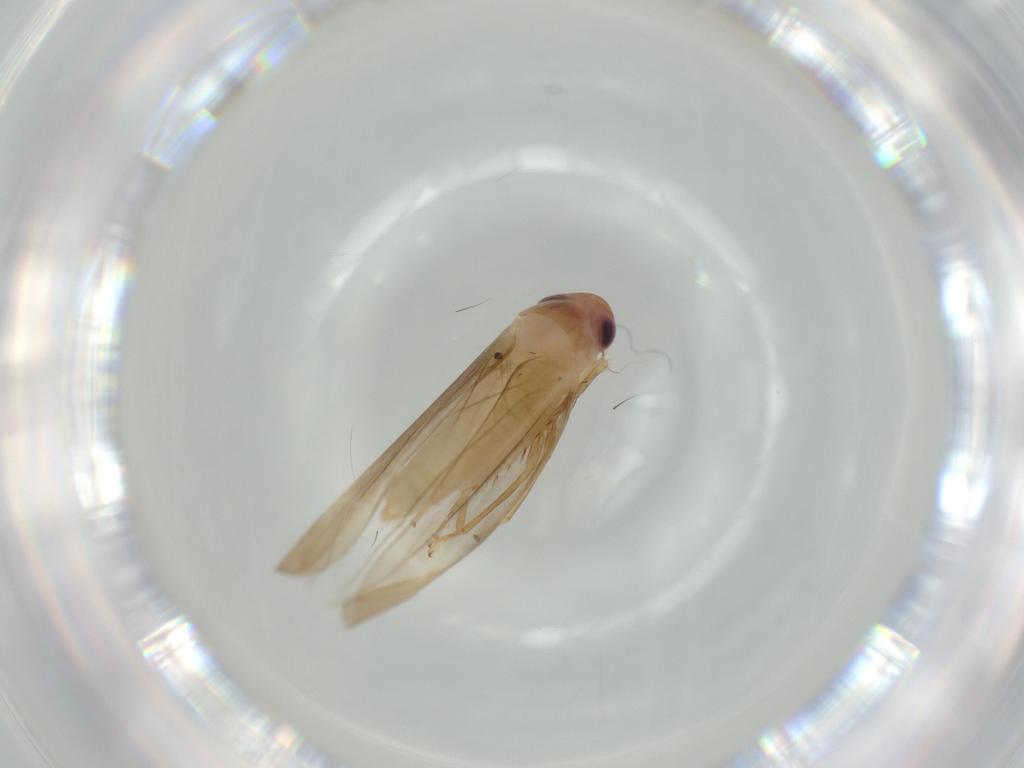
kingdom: Animalia
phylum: Arthropoda
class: Insecta
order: Hemiptera
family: Cicadellidae
